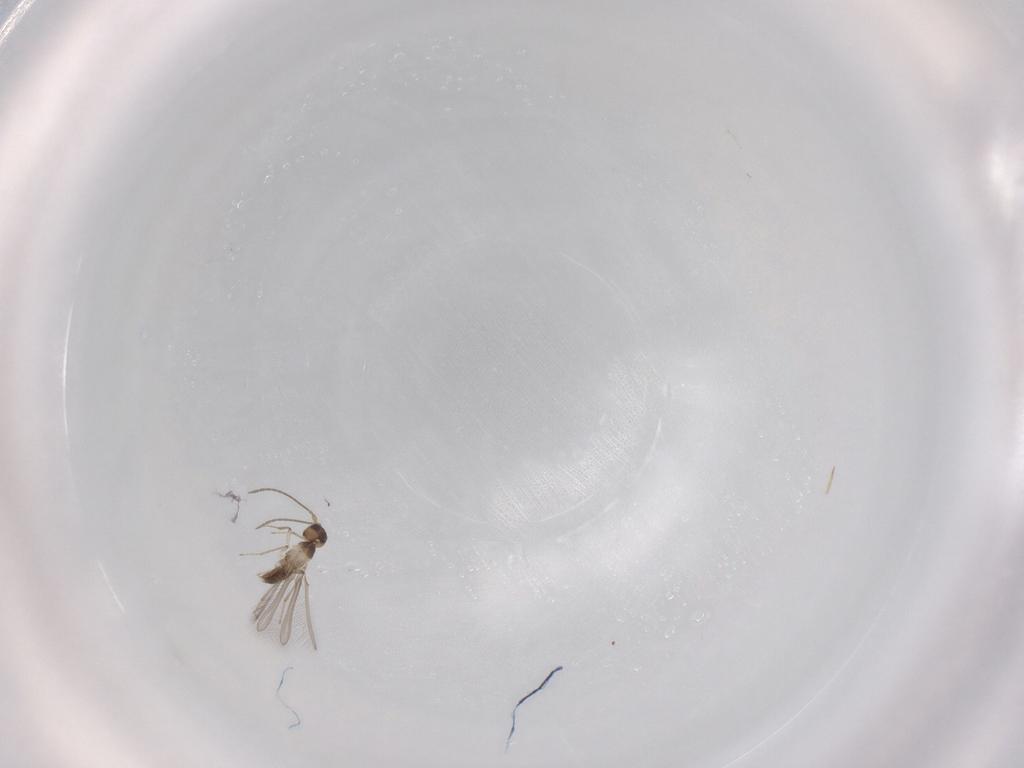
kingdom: Animalia
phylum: Arthropoda
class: Insecta
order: Hymenoptera
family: Mymaridae
